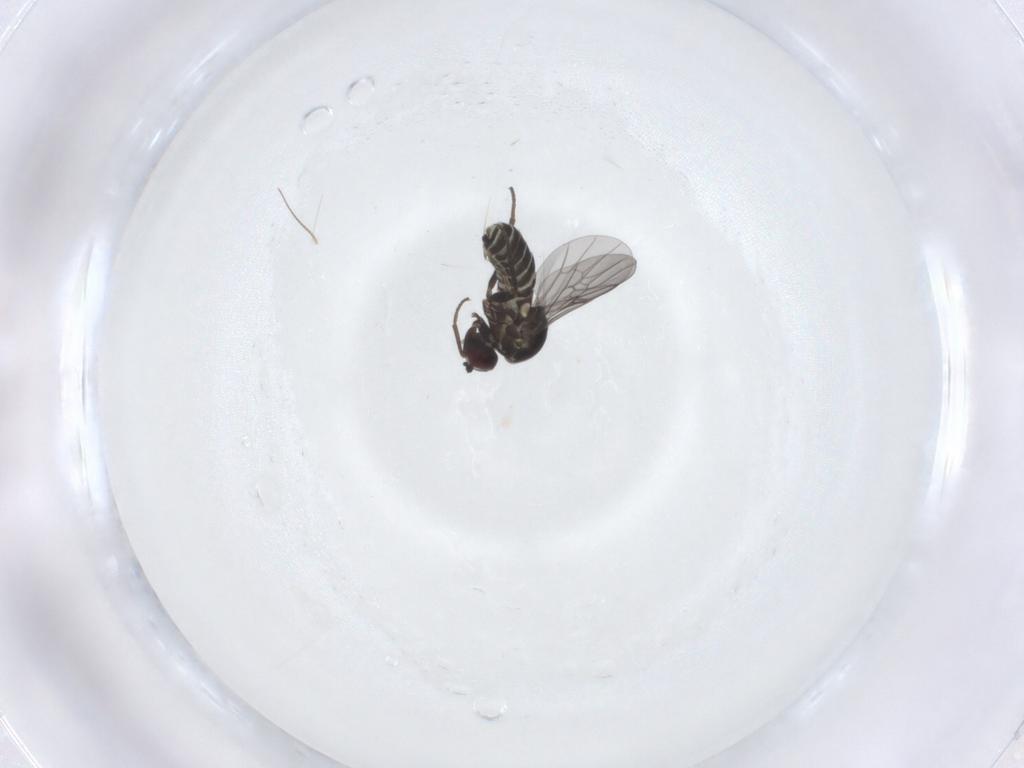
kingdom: Animalia
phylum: Arthropoda
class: Insecta
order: Diptera
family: Mythicomyiidae
